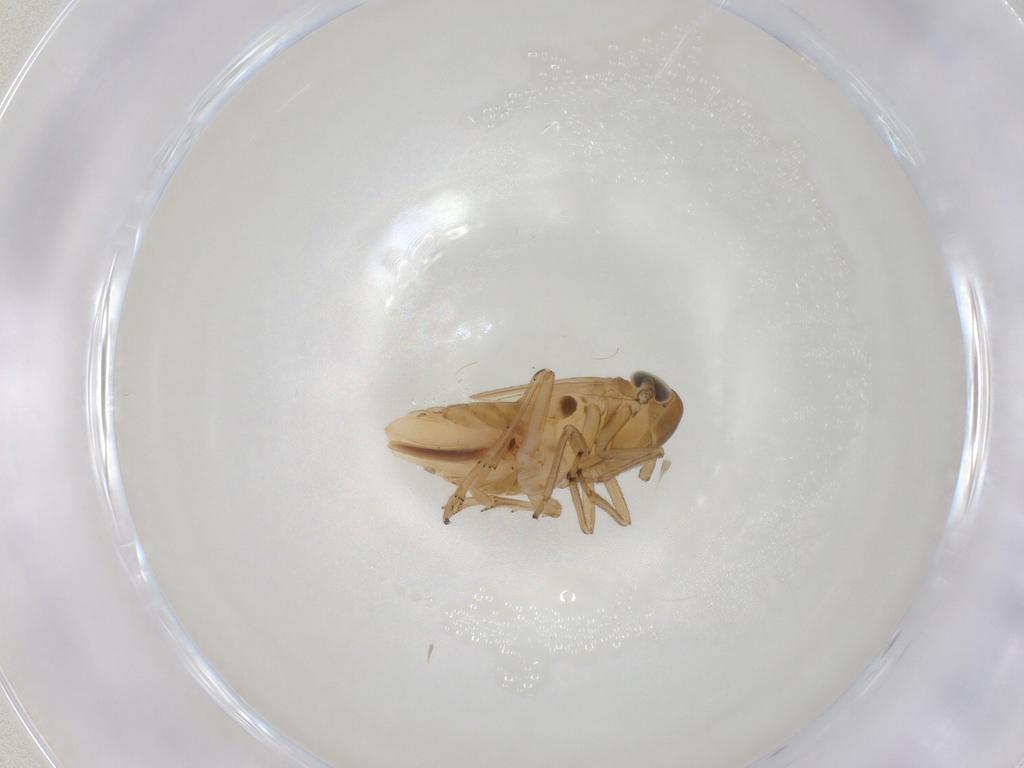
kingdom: Animalia
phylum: Arthropoda
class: Insecta
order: Hemiptera
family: Delphacidae
